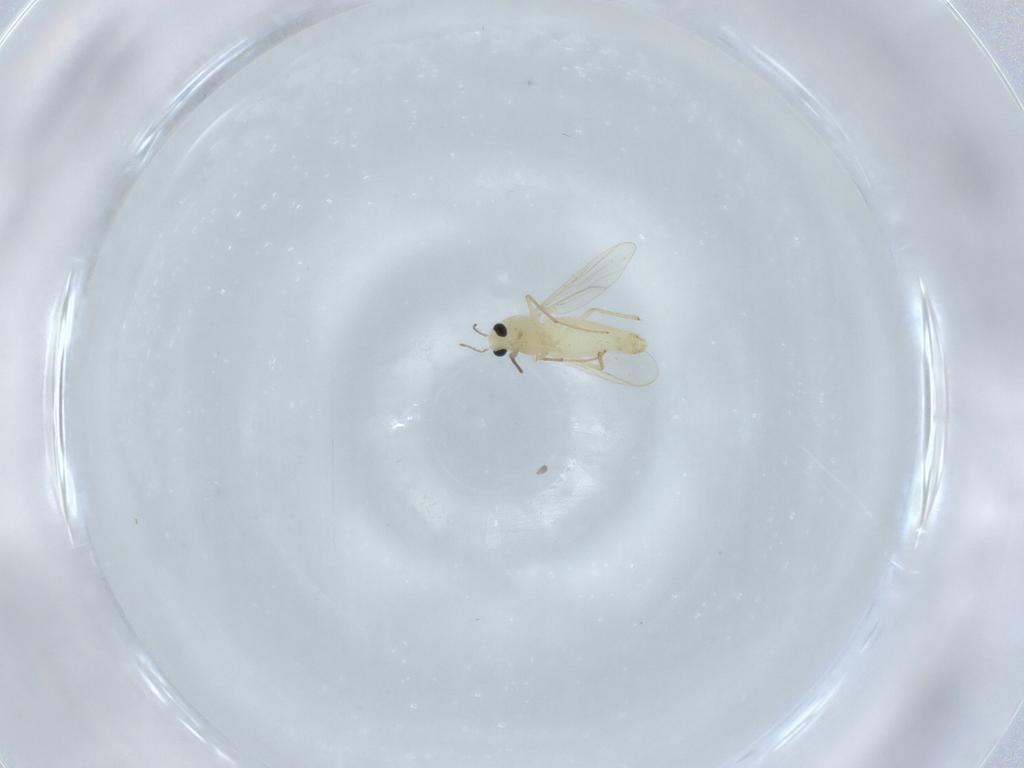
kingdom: Animalia
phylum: Arthropoda
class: Insecta
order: Diptera
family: Chironomidae
